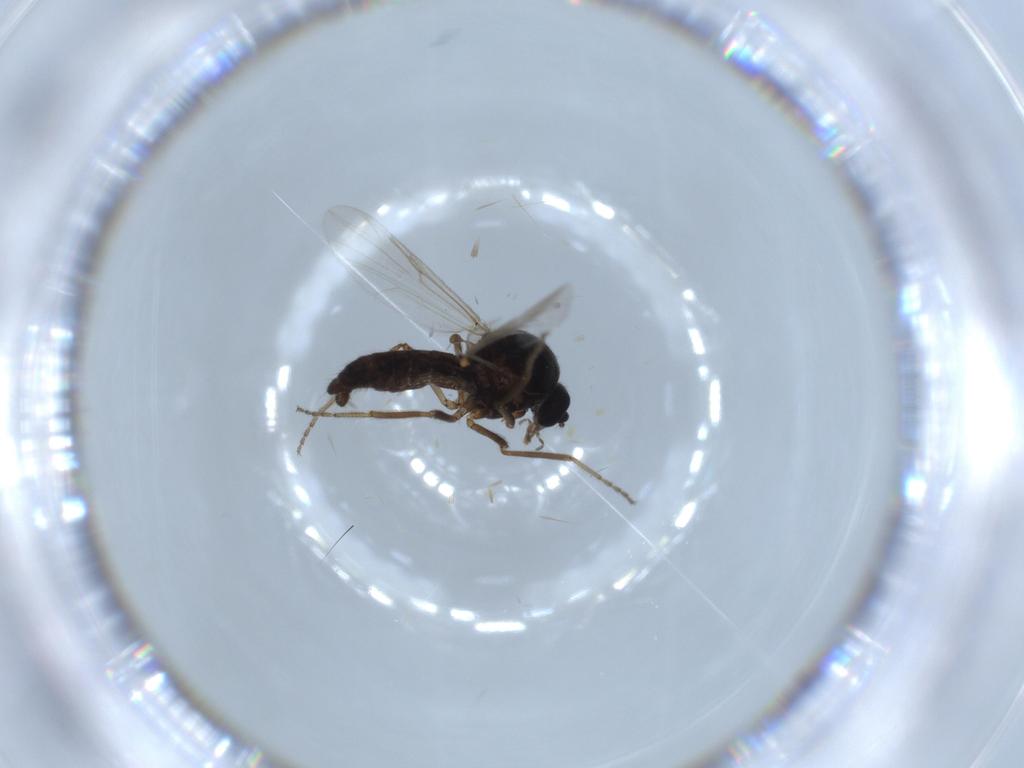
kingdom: Animalia
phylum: Arthropoda
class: Insecta
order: Diptera
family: Ceratopogonidae
